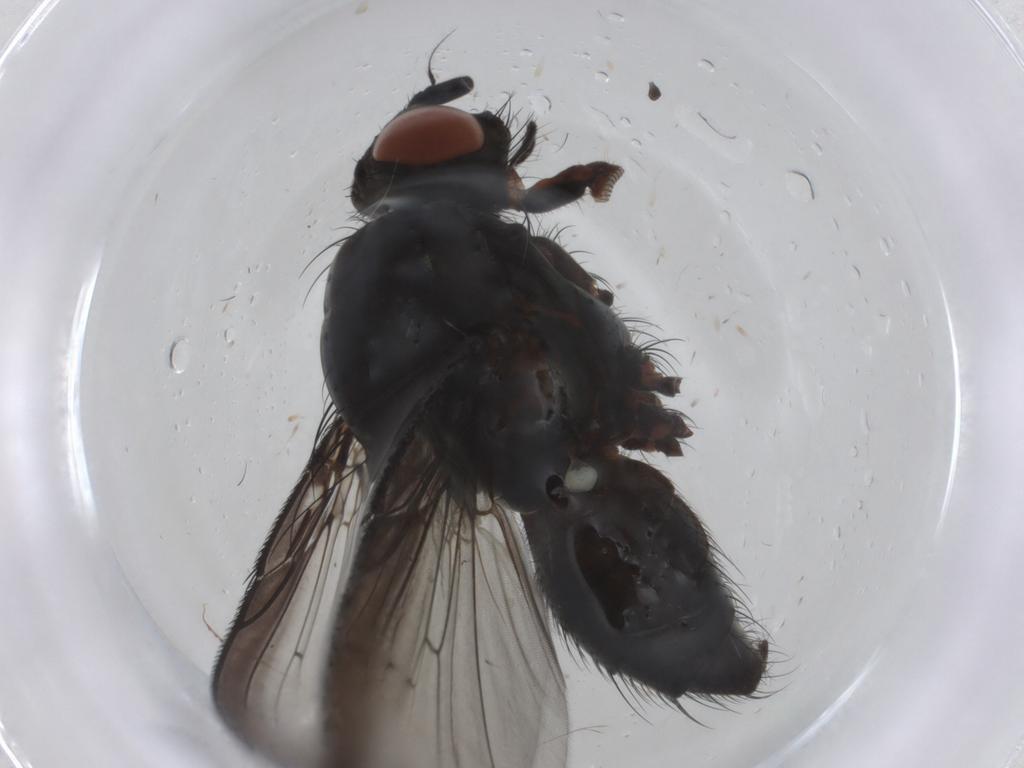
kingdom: Animalia
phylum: Arthropoda
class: Insecta
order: Diptera
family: Anthomyiidae
